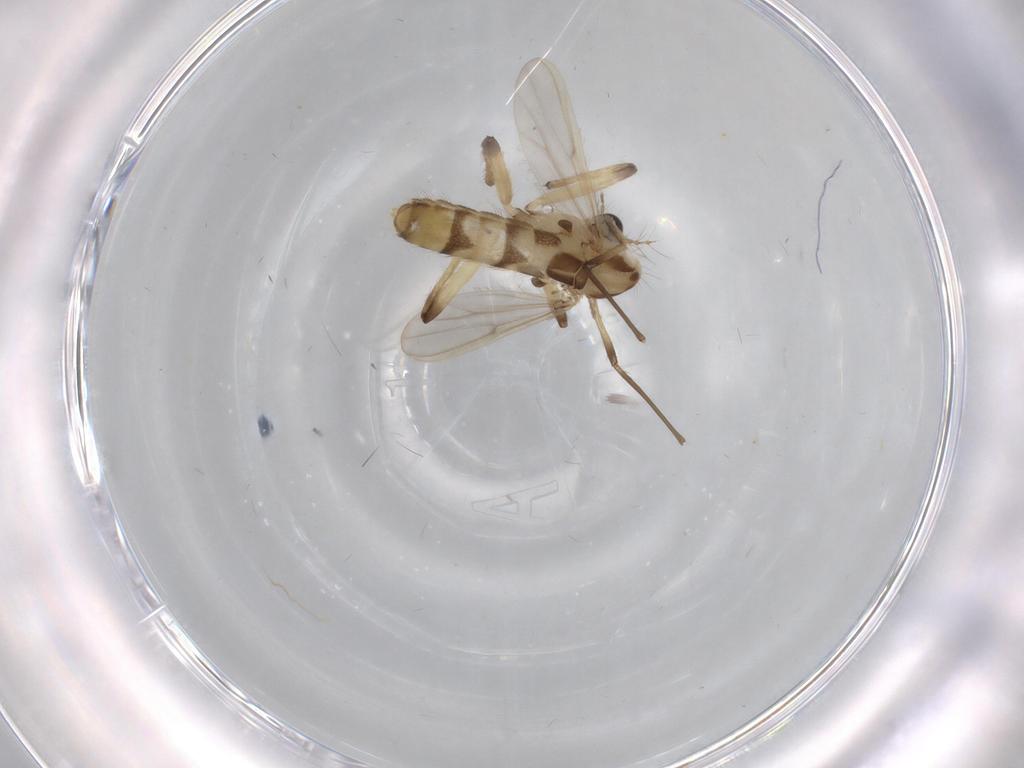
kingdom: Animalia
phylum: Arthropoda
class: Insecta
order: Diptera
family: Chironomidae
